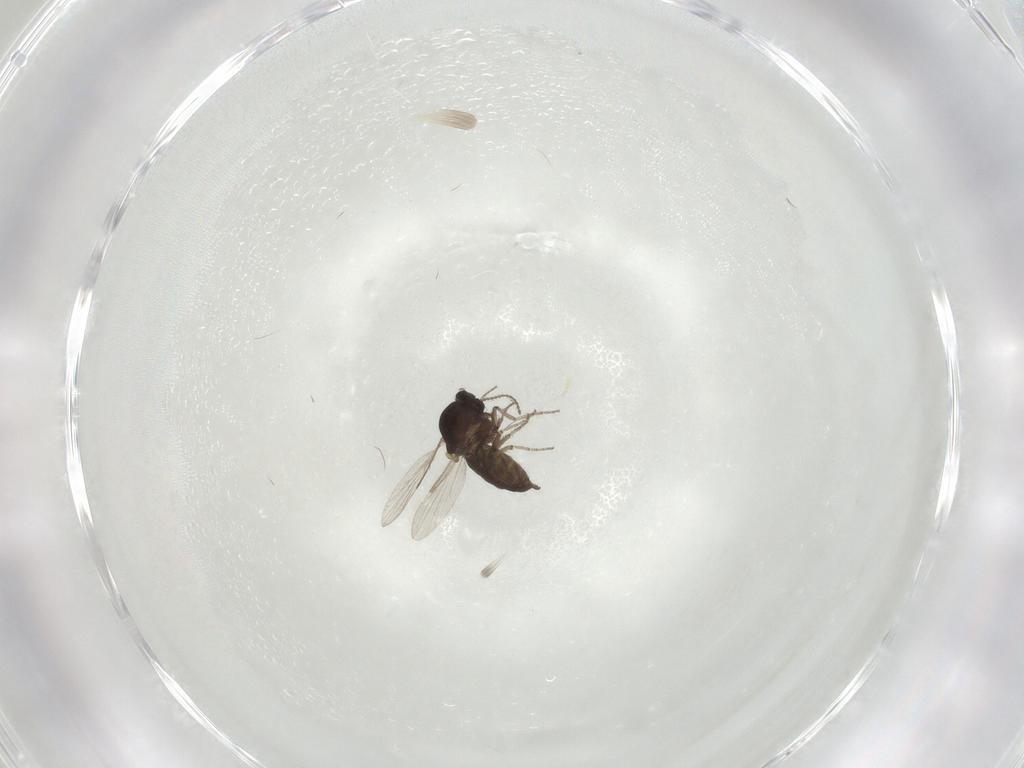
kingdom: Animalia
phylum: Arthropoda
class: Insecta
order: Diptera
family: Ceratopogonidae
